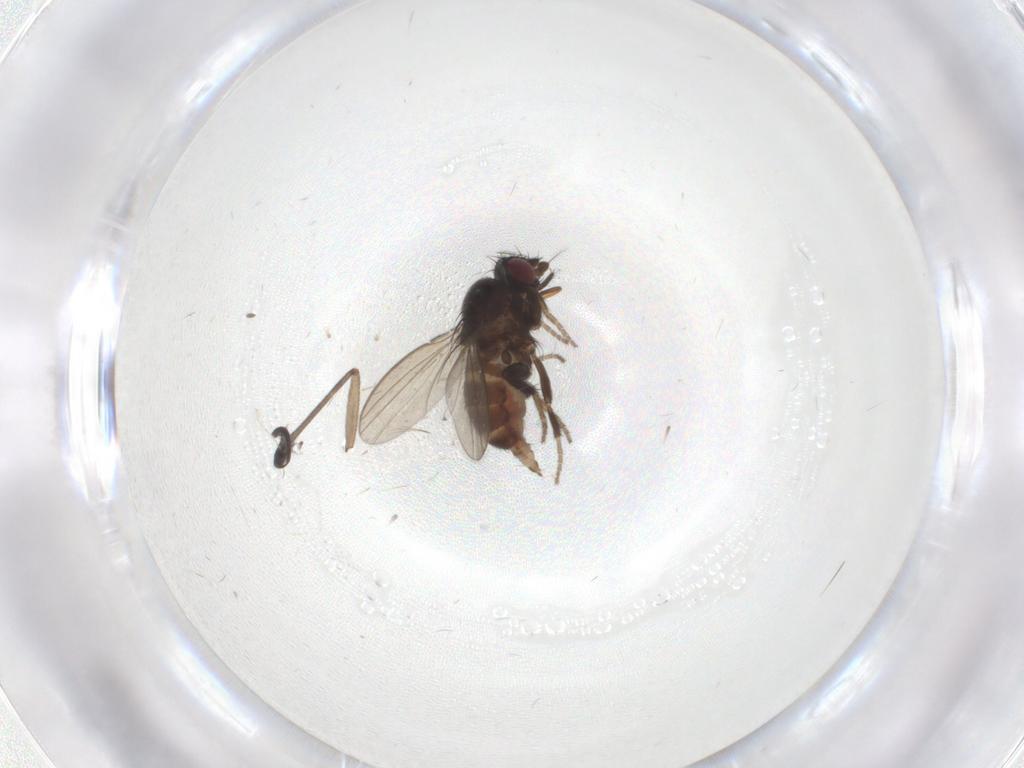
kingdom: Animalia
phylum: Arthropoda
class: Insecta
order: Diptera
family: Milichiidae
